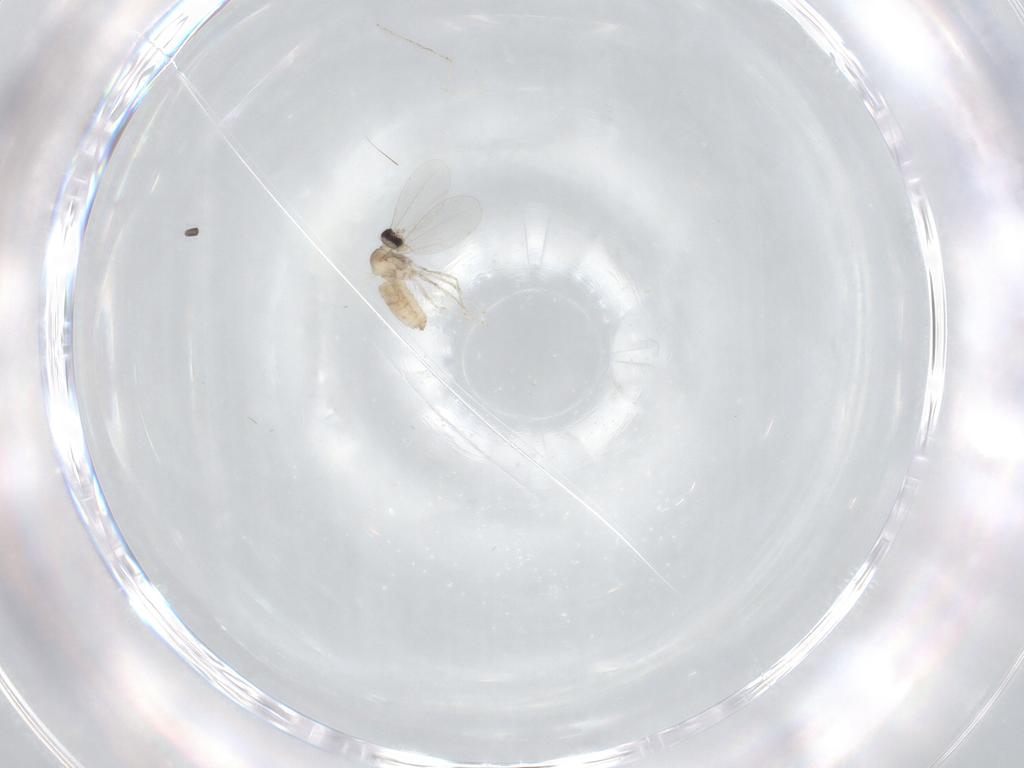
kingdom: Animalia
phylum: Arthropoda
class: Insecta
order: Diptera
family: Cecidomyiidae
